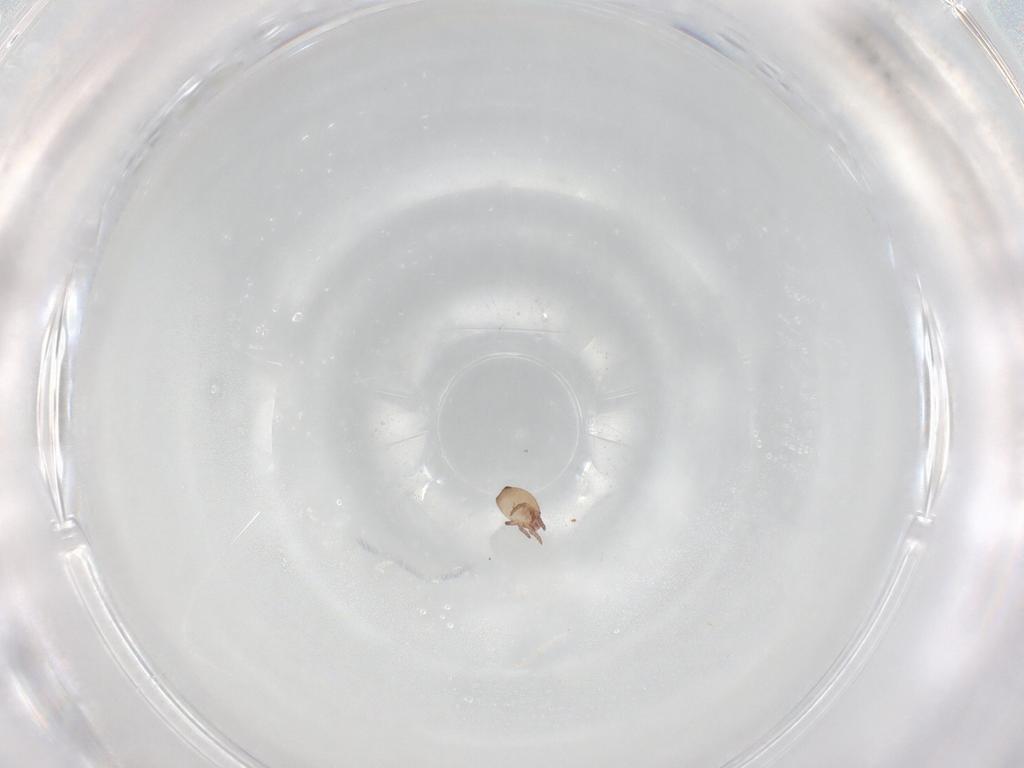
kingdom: Animalia
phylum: Arthropoda
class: Arachnida
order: Sarcoptiformes
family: Hermanniidae
